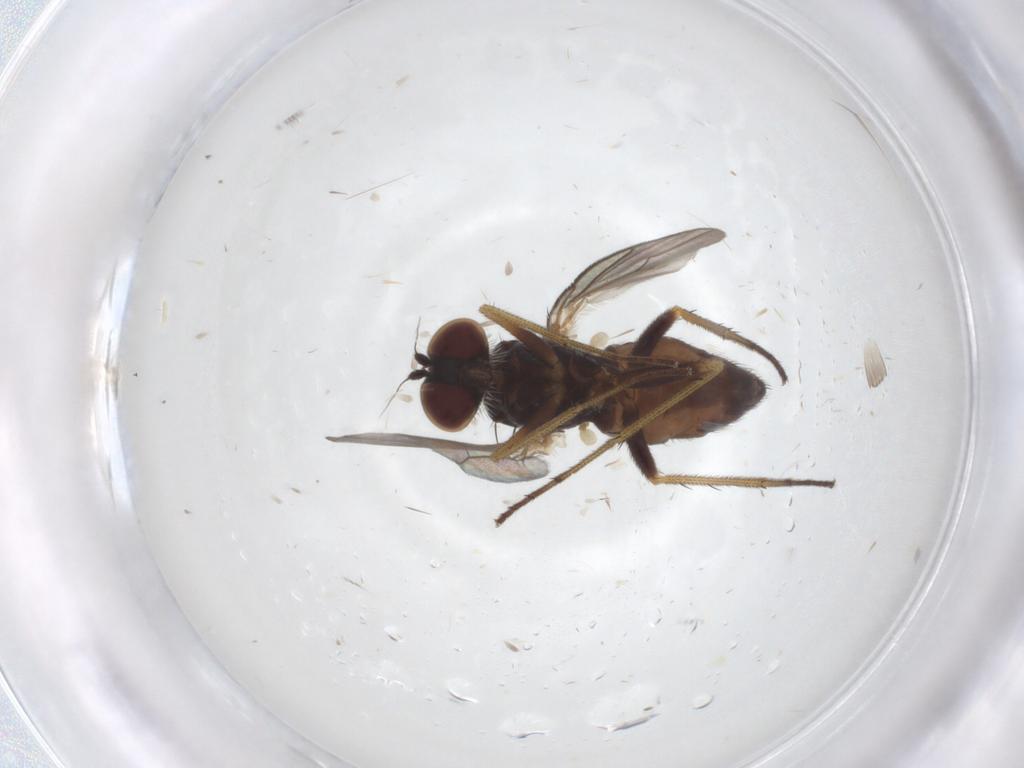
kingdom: Animalia
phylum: Arthropoda
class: Insecta
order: Diptera
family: Dolichopodidae
